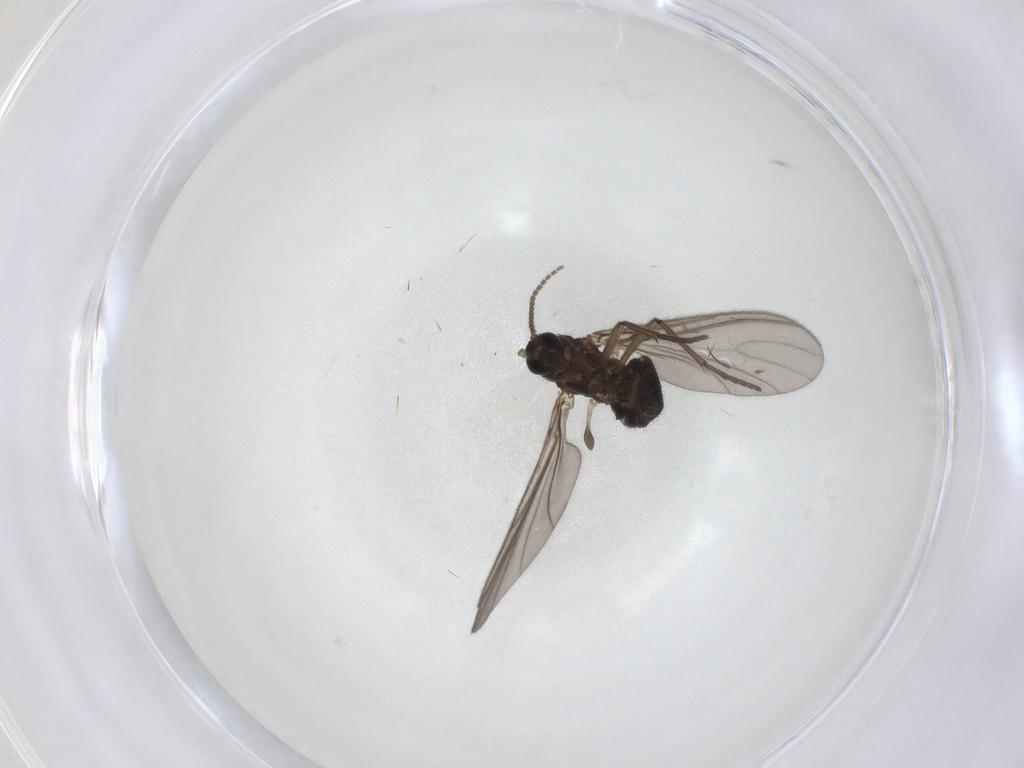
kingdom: Animalia
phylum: Arthropoda
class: Insecta
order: Diptera
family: Sciaridae
